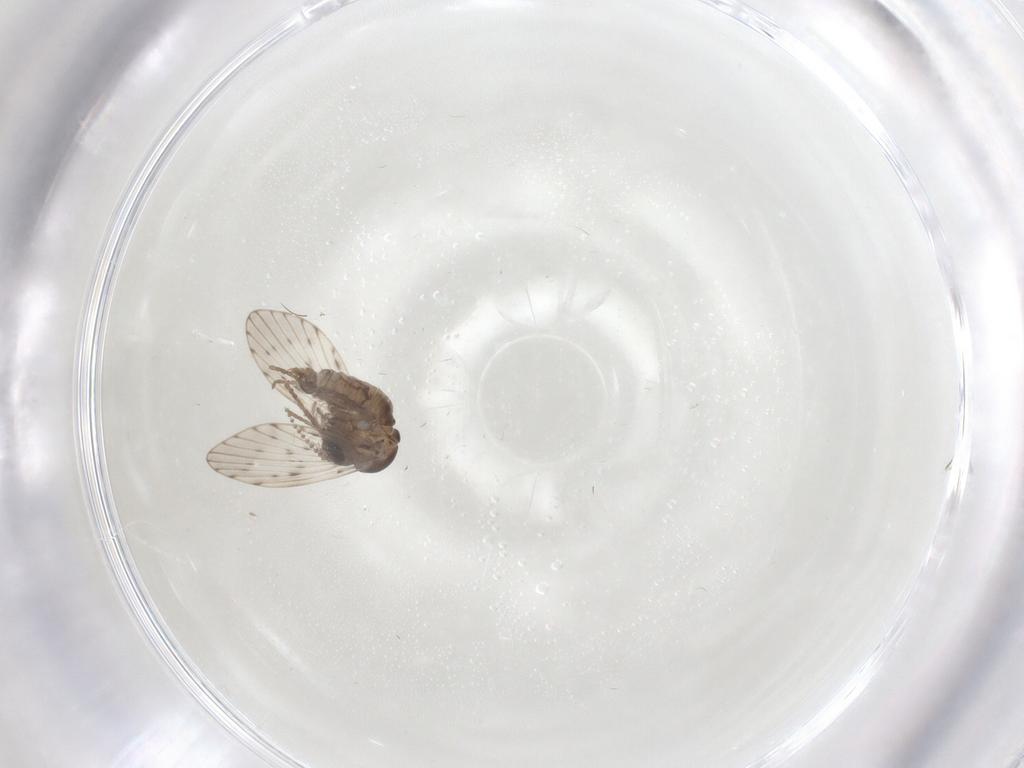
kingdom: Animalia
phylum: Arthropoda
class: Insecta
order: Diptera
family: Psychodidae
